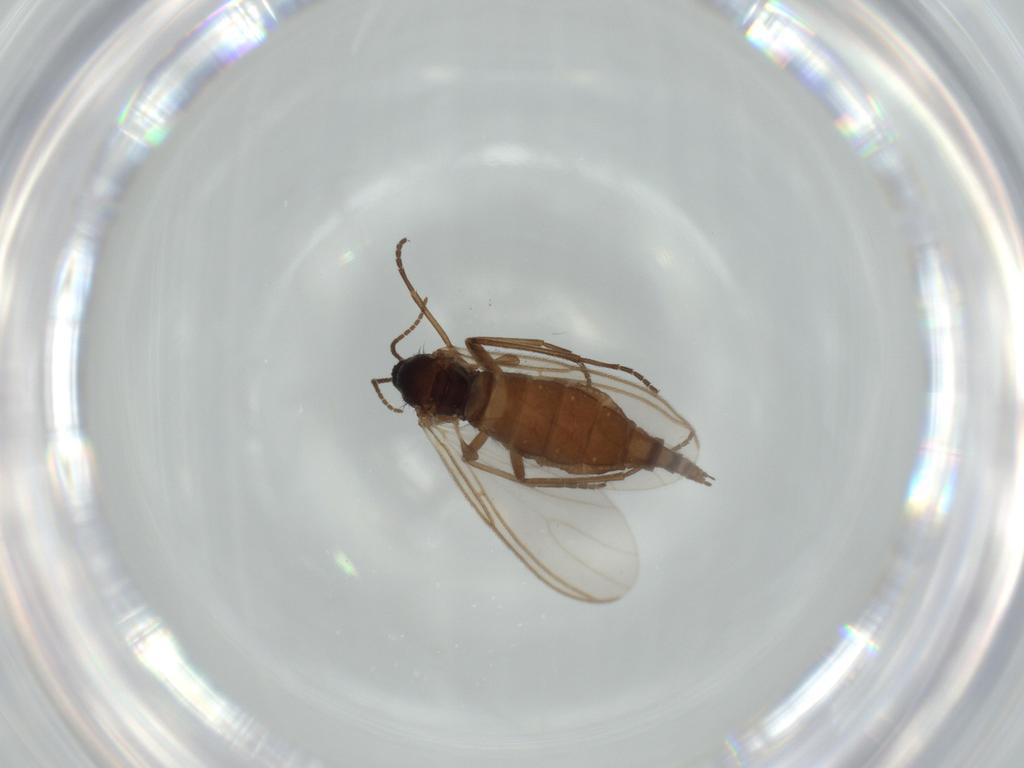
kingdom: Animalia
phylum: Arthropoda
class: Insecta
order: Diptera
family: Sciaridae
